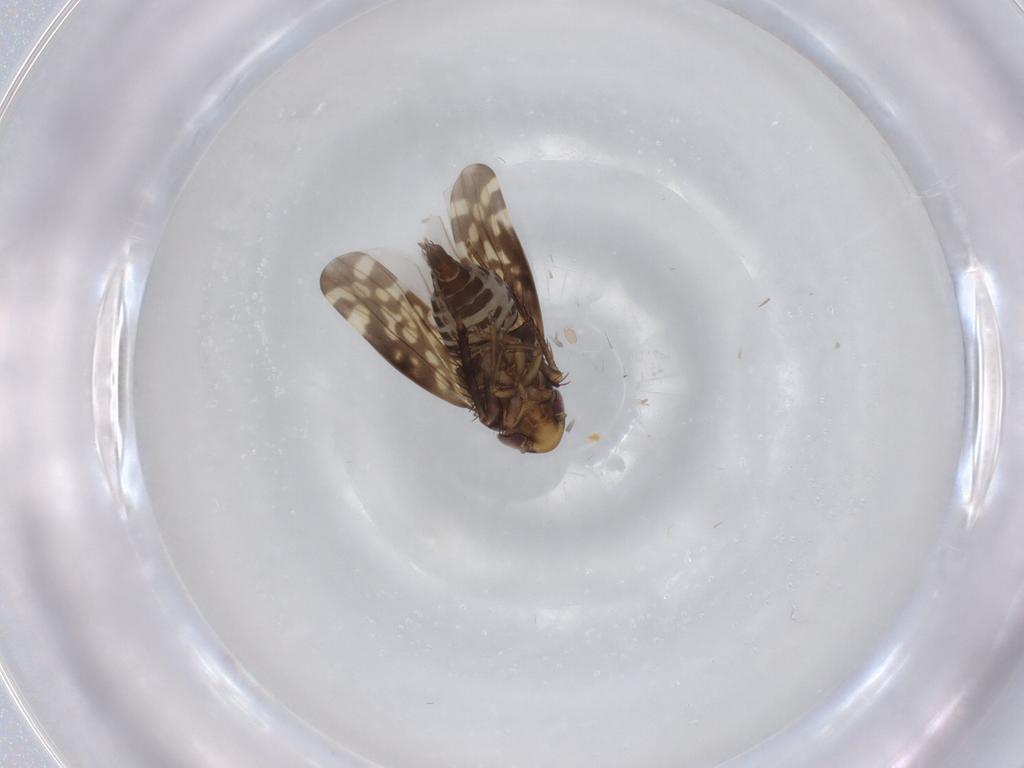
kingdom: Animalia
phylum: Arthropoda
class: Insecta
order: Hemiptera
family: Cicadellidae
